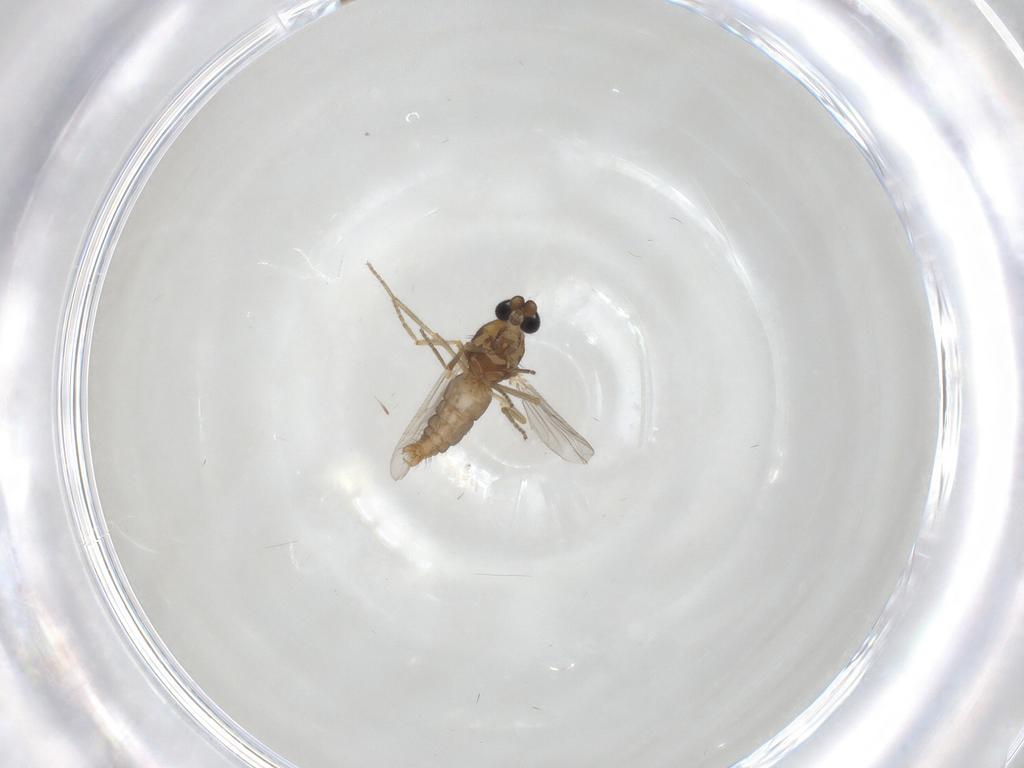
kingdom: Animalia
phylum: Arthropoda
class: Insecta
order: Diptera
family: Ceratopogonidae
